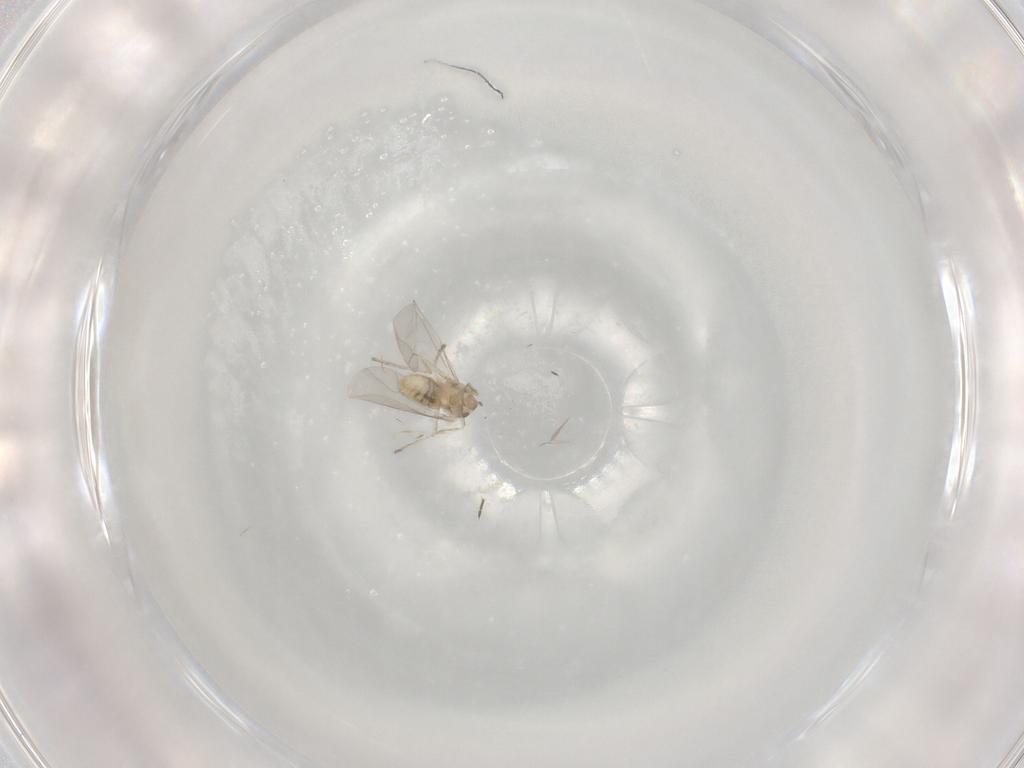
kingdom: Animalia
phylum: Arthropoda
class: Insecta
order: Diptera
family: Cecidomyiidae
